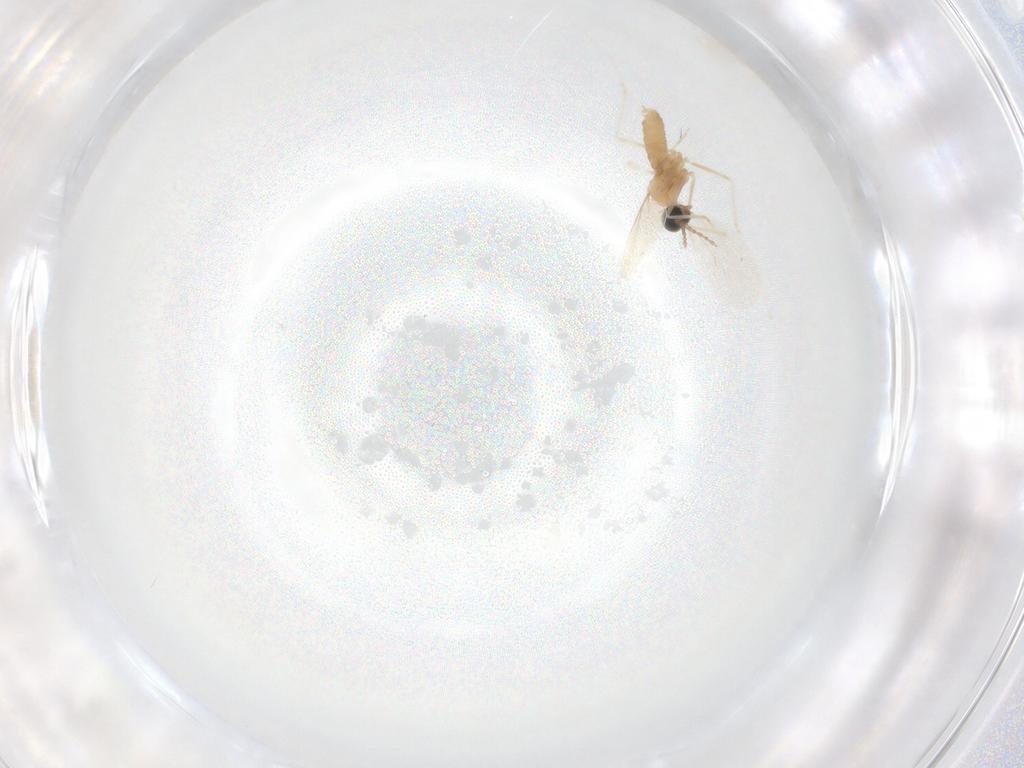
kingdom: Animalia
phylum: Arthropoda
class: Insecta
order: Diptera
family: Cecidomyiidae
